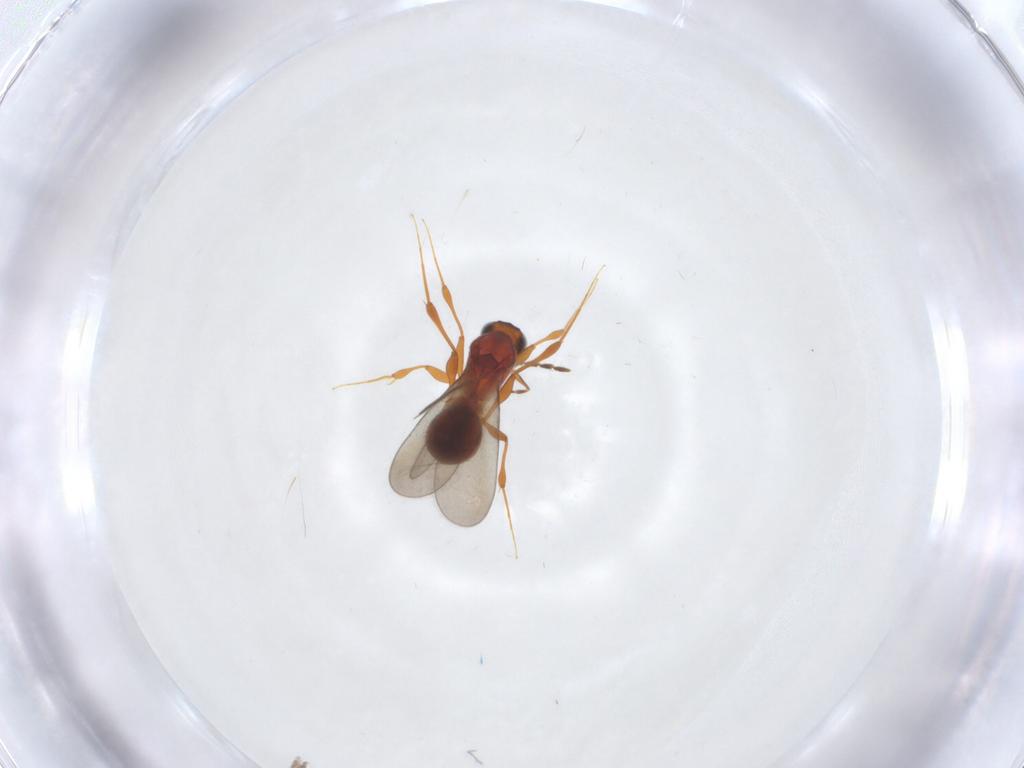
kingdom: Animalia
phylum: Arthropoda
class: Insecta
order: Hymenoptera
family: Platygastridae
